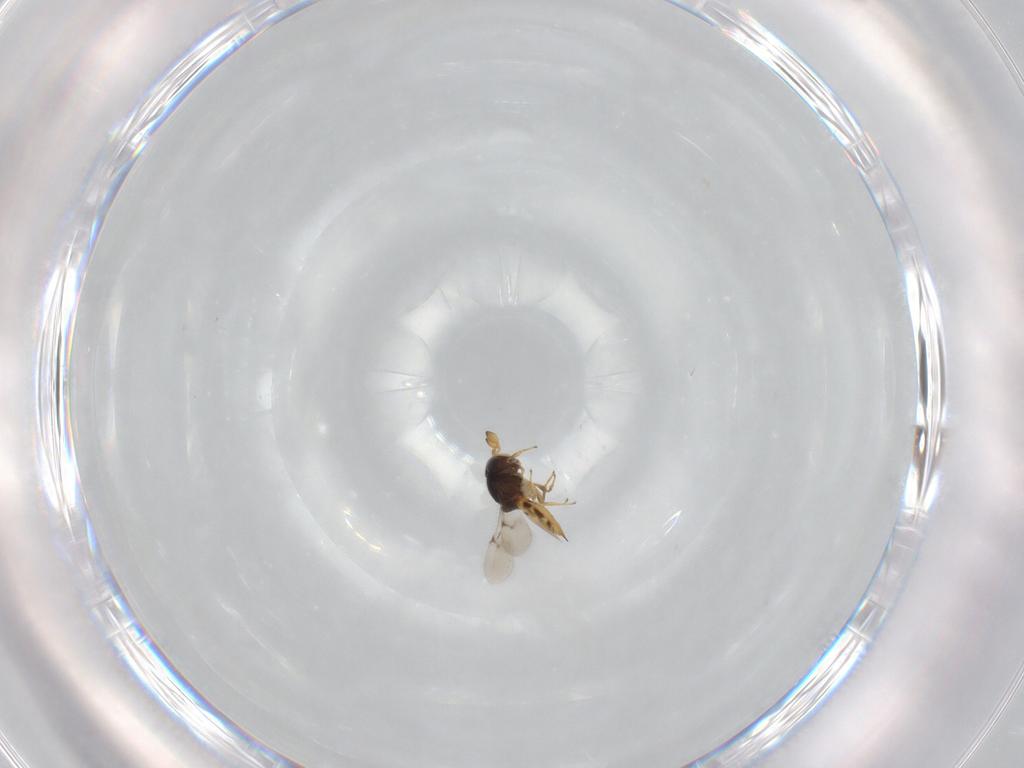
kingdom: Animalia
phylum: Arthropoda
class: Insecta
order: Hymenoptera
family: Scelionidae
